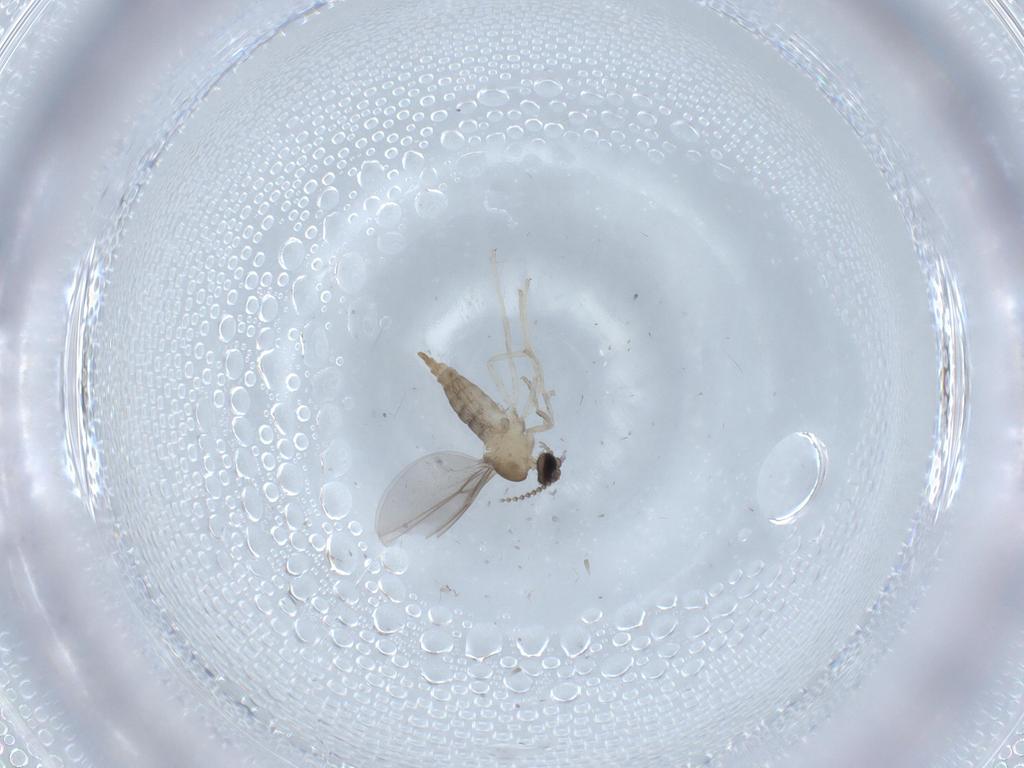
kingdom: Animalia
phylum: Arthropoda
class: Insecta
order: Diptera
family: Cecidomyiidae
